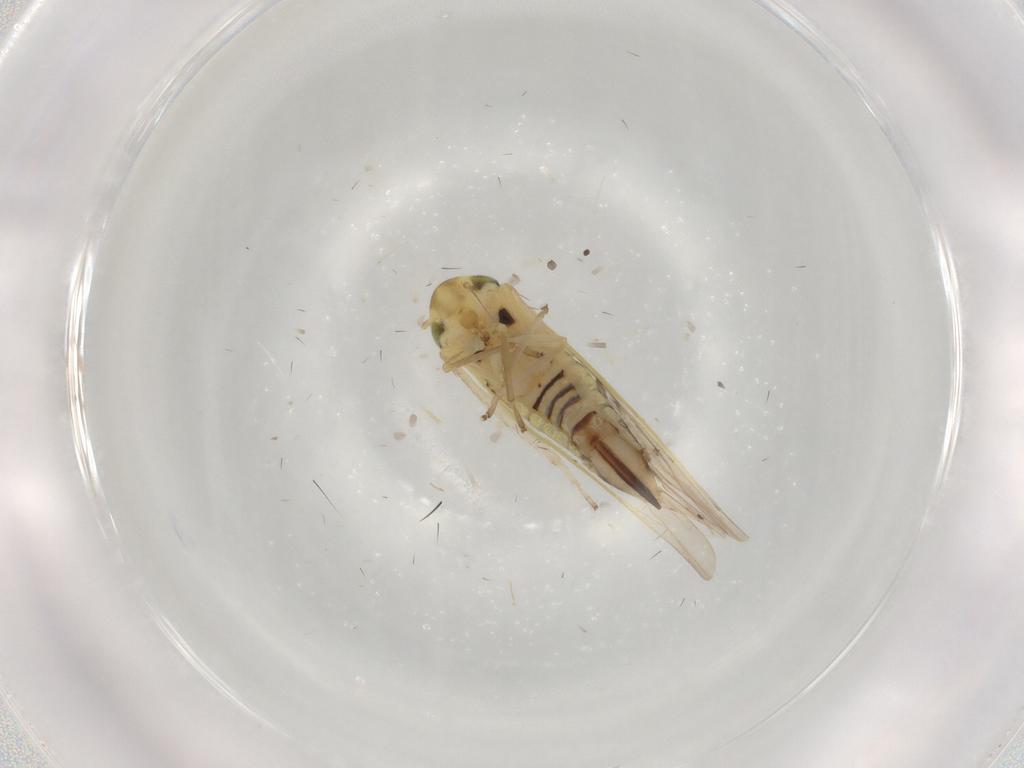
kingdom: Animalia
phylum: Arthropoda
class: Insecta
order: Hemiptera
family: Cicadellidae
